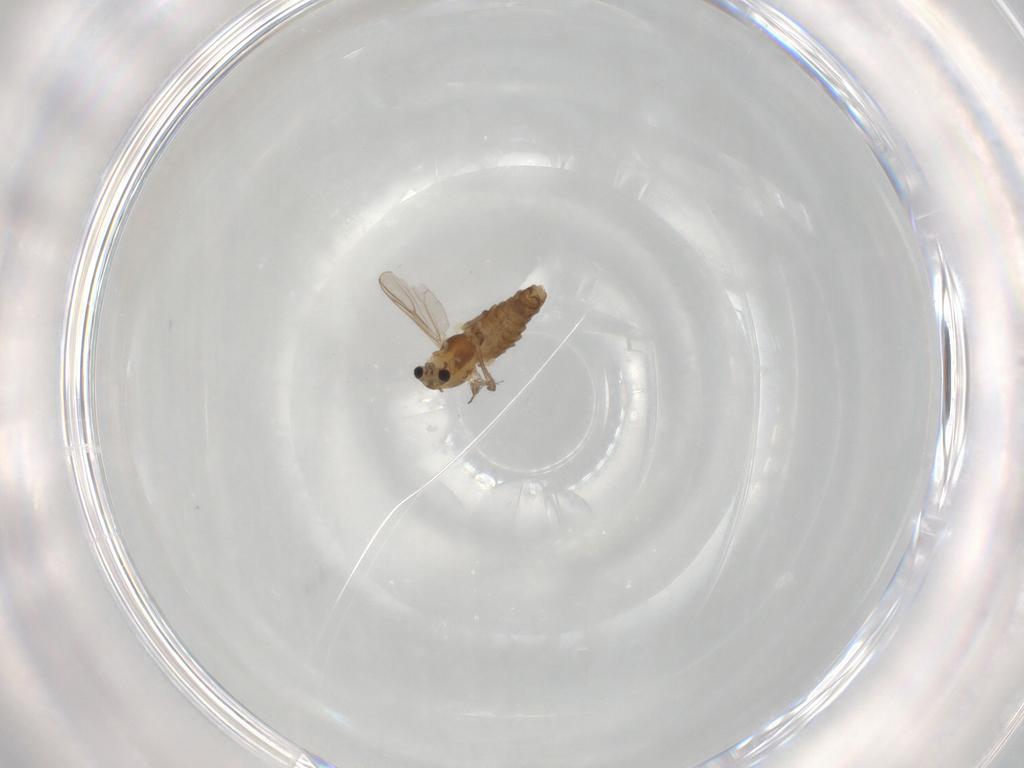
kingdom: Animalia
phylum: Arthropoda
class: Insecta
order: Diptera
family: Chironomidae
